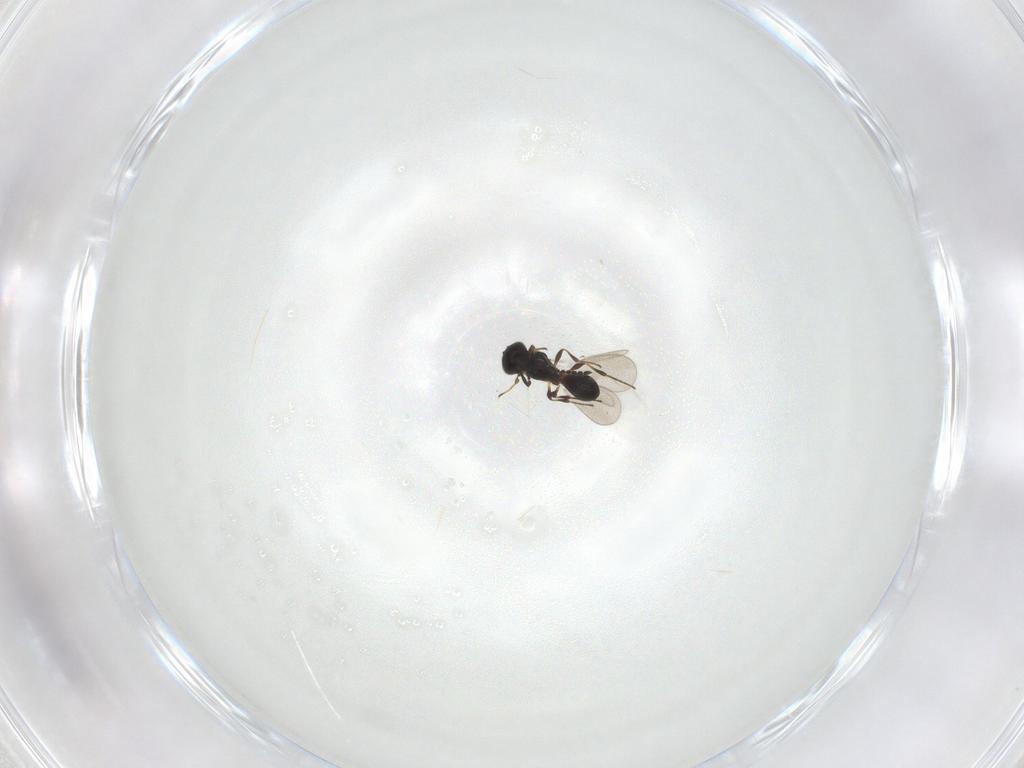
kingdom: Animalia
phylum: Arthropoda
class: Insecta
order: Hymenoptera
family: Platygastridae
